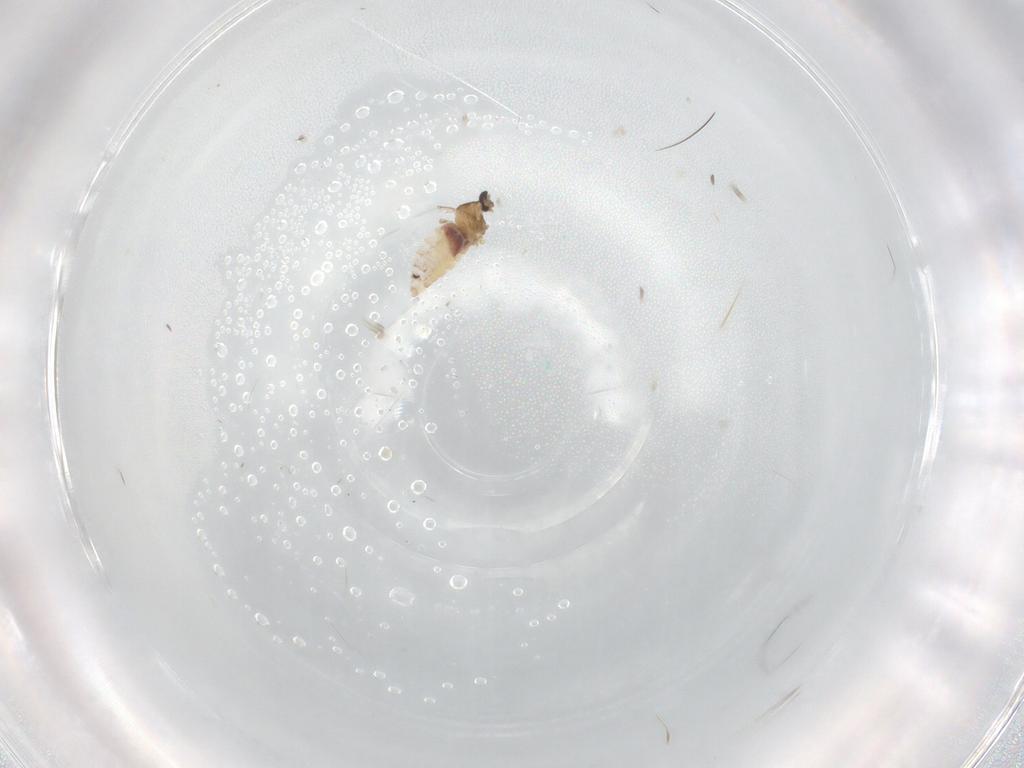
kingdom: Animalia
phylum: Arthropoda
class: Insecta
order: Diptera
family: Cecidomyiidae
